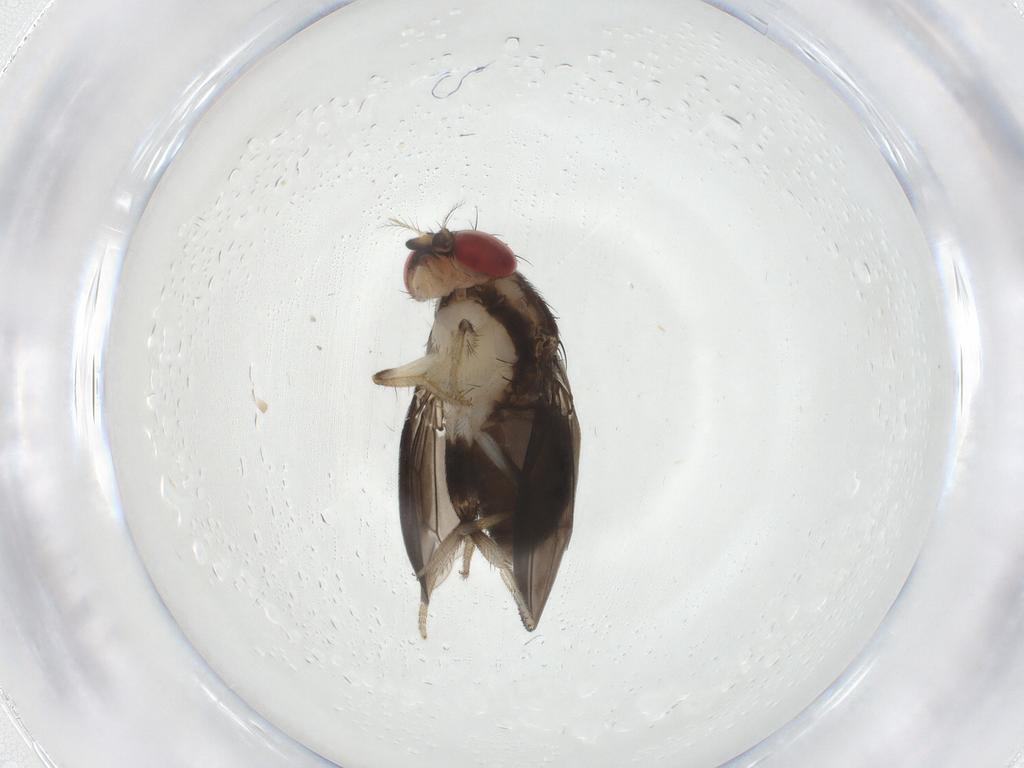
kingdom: Animalia
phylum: Arthropoda
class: Insecta
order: Diptera
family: Drosophilidae
